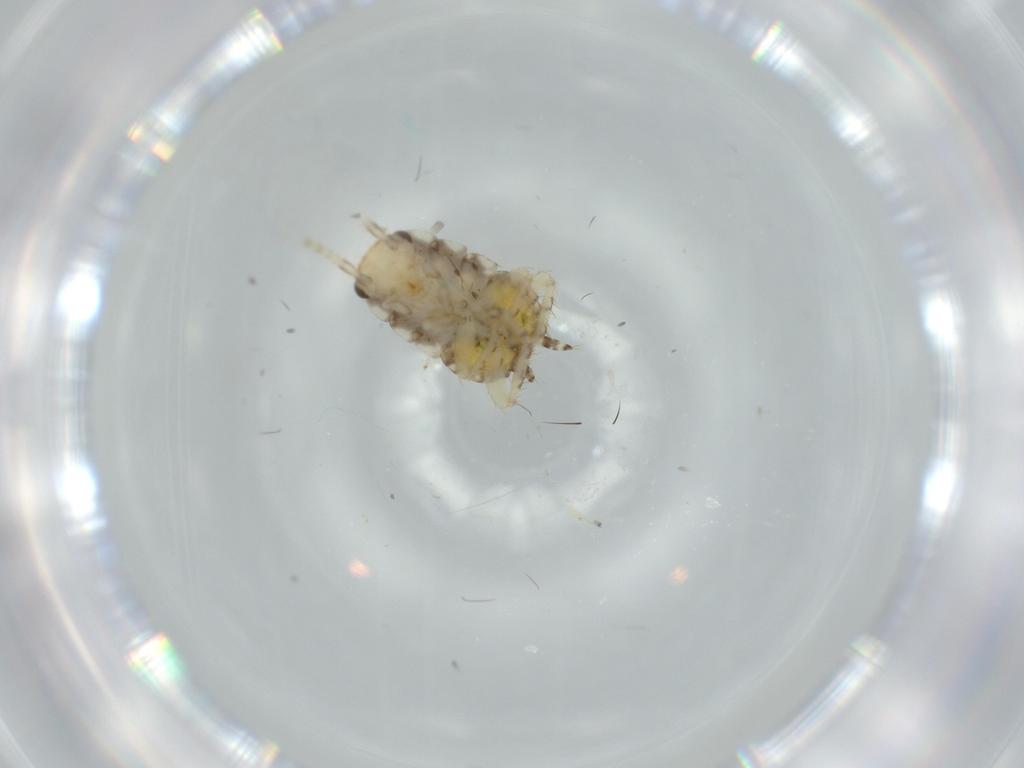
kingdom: Animalia
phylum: Arthropoda
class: Insecta
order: Blattodea
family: Ectobiidae
